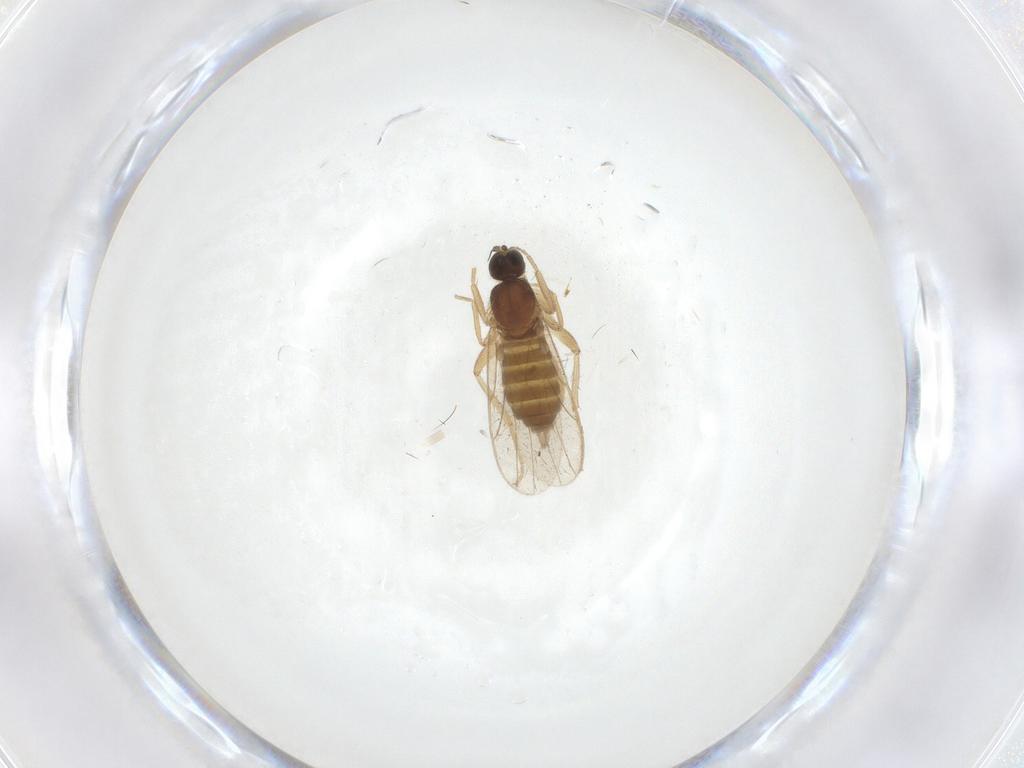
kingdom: Animalia
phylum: Arthropoda
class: Insecta
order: Diptera
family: Hybotidae
